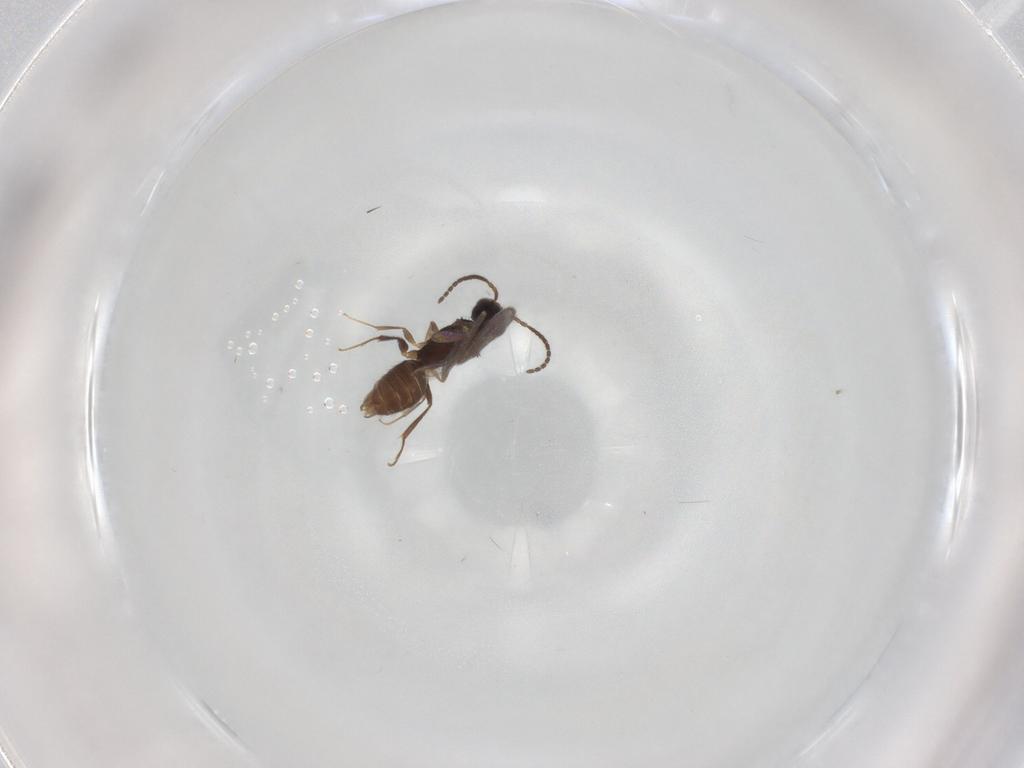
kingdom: Animalia
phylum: Arthropoda
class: Insecta
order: Hymenoptera
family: Bethylidae
